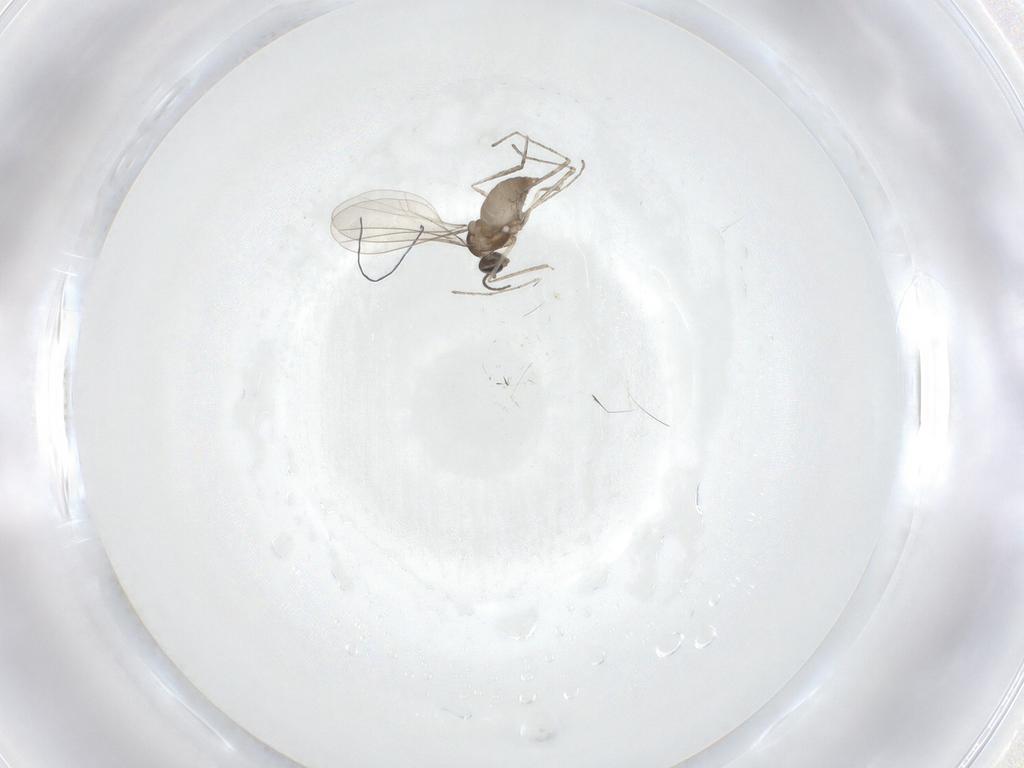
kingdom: Animalia
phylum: Arthropoda
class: Insecta
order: Diptera
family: Cecidomyiidae
